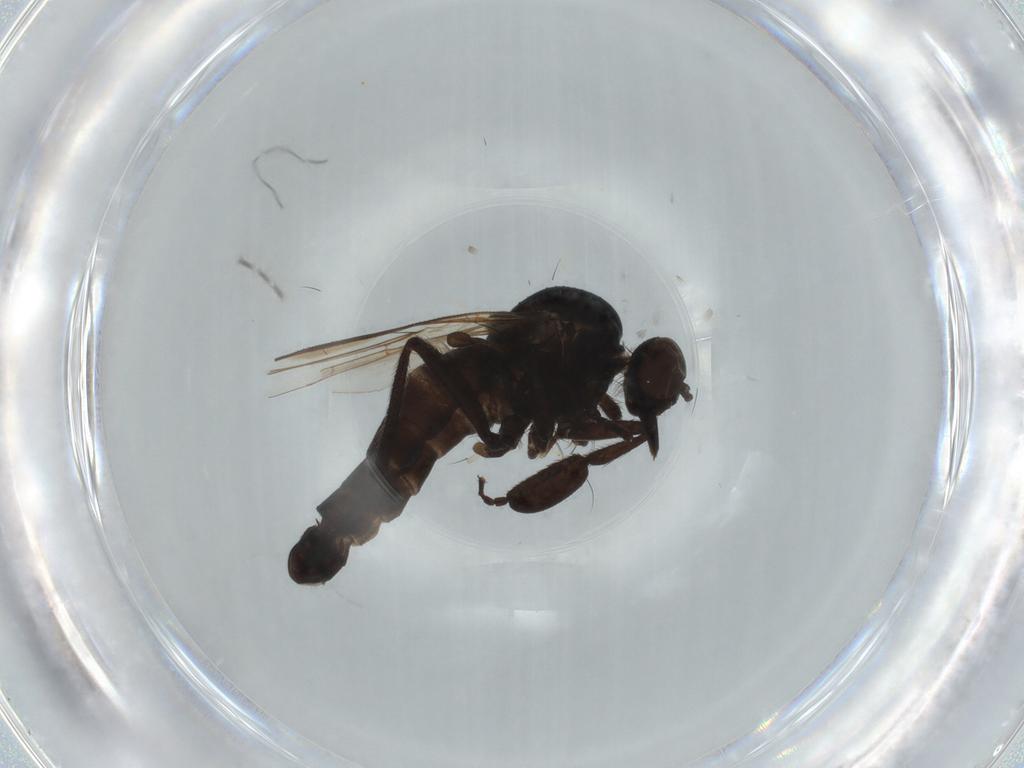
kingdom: Animalia
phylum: Arthropoda
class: Insecta
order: Diptera
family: Empididae
